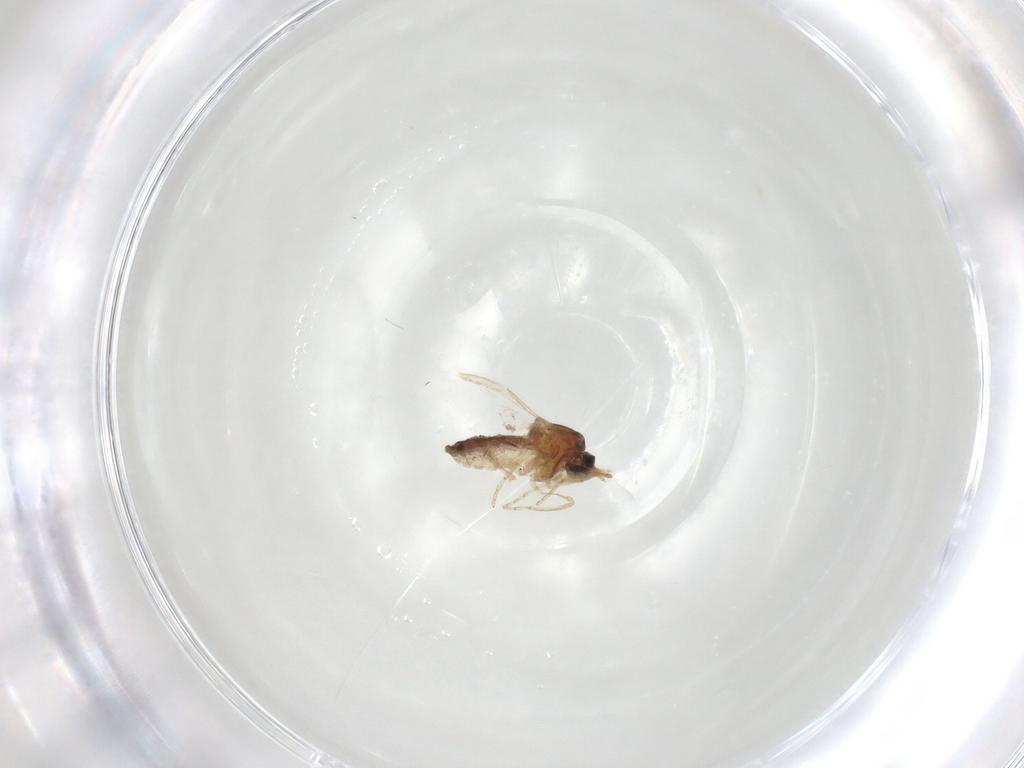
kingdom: Animalia
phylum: Arthropoda
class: Insecta
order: Diptera
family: Ceratopogonidae
